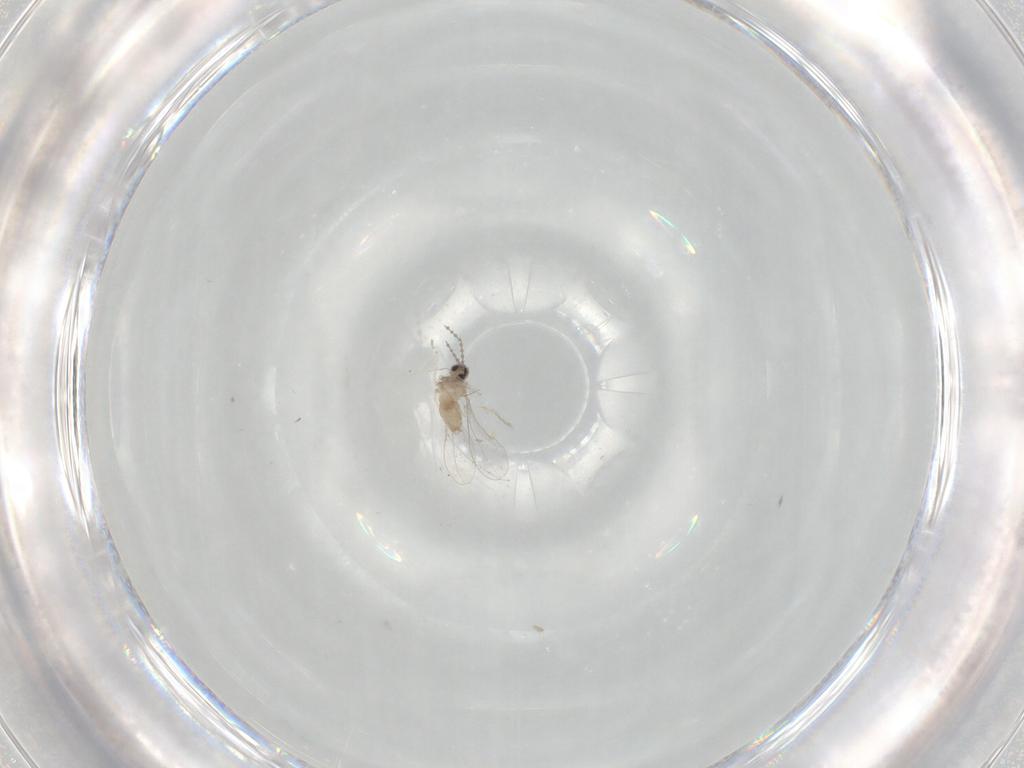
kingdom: Animalia
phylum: Arthropoda
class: Insecta
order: Diptera
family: Cecidomyiidae
